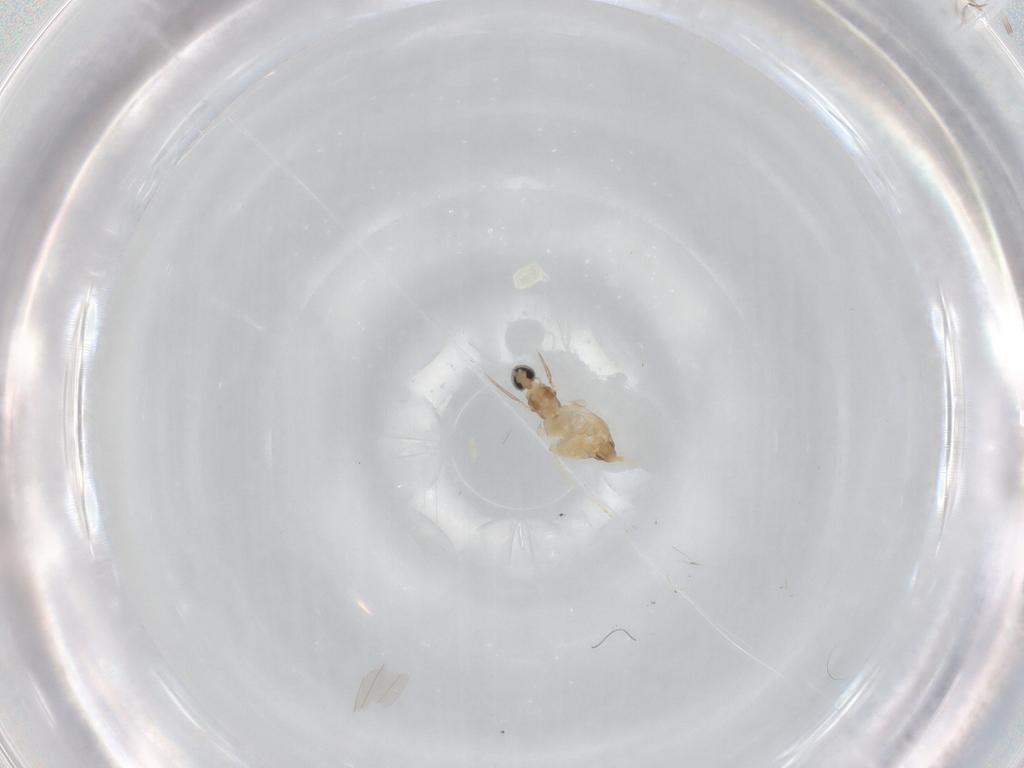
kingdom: Animalia
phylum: Arthropoda
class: Insecta
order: Diptera
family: Cecidomyiidae
